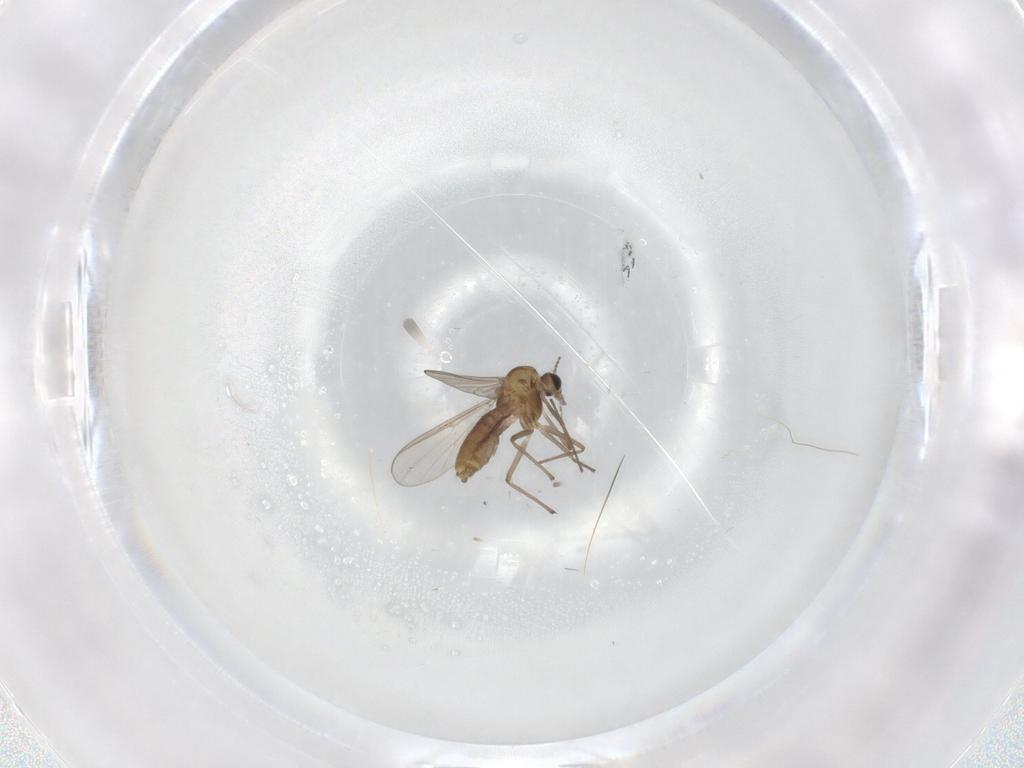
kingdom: Animalia
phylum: Arthropoda
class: Insecta
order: Diptera
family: Chironomidae
